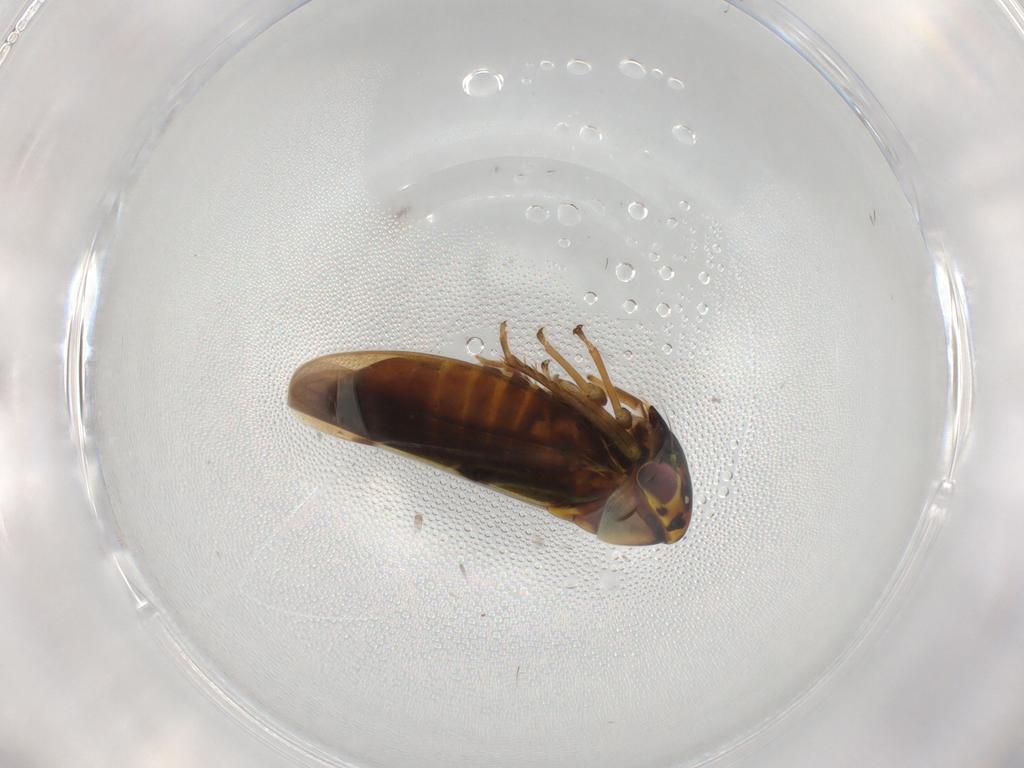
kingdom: Animalia
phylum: Arthropoda
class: Insecta
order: Hemiptera
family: Cicadellidae
